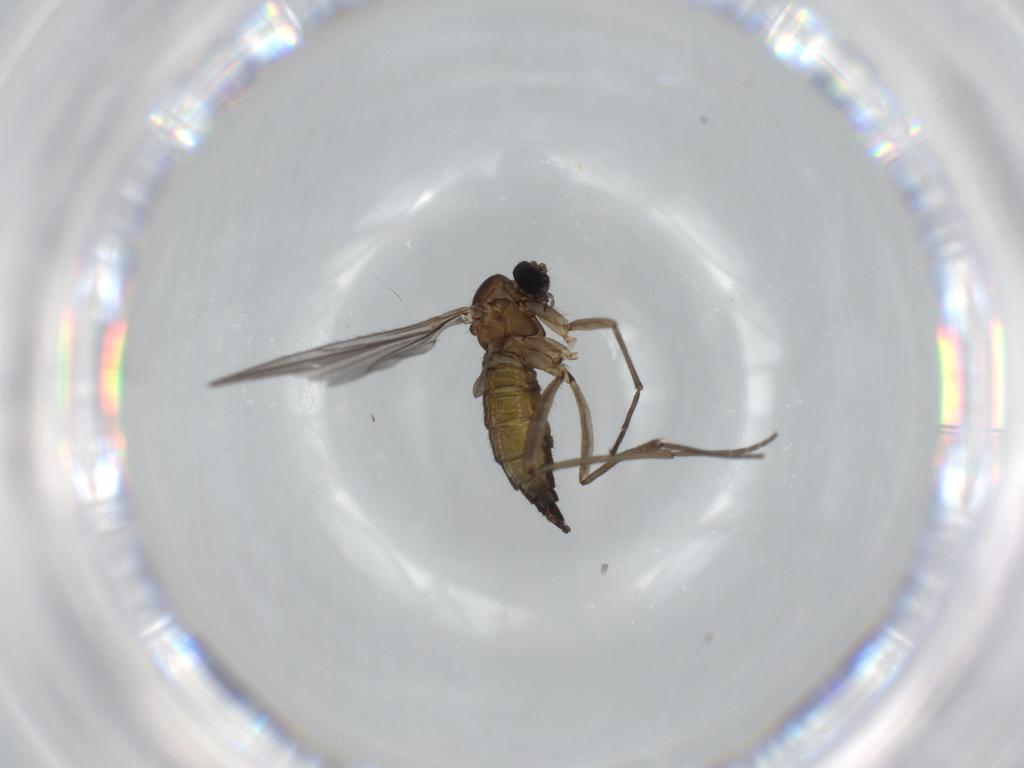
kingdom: Animalia
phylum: Arthropoda
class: Insecta
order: Diptera
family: Sciaridae
